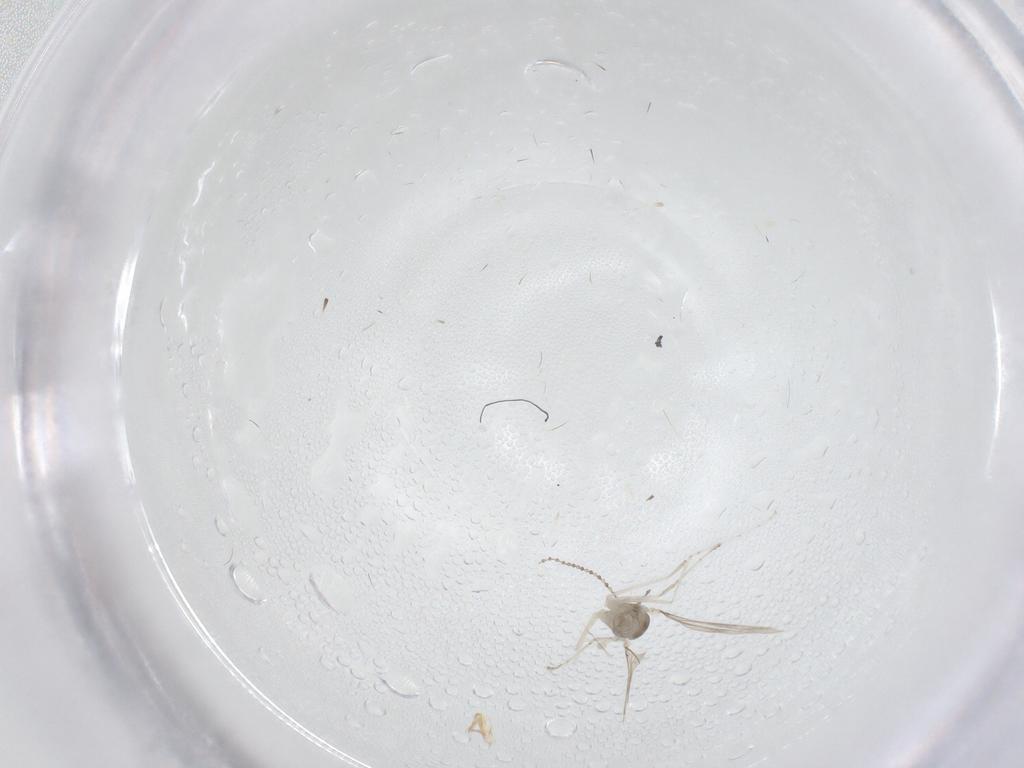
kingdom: Animalia
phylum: Arthropoda
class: Insecta
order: Diptera
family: Cecidomyiidae
